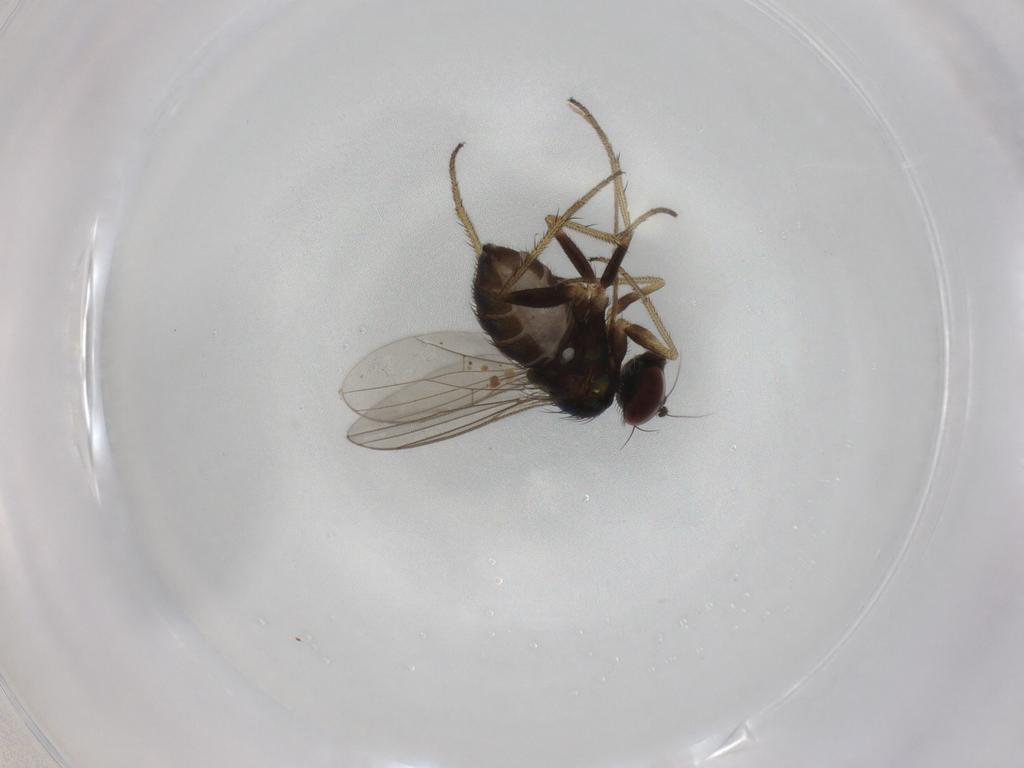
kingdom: Animalia
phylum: Arthropoda
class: Insecta
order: Diptera
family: Chironomidae
